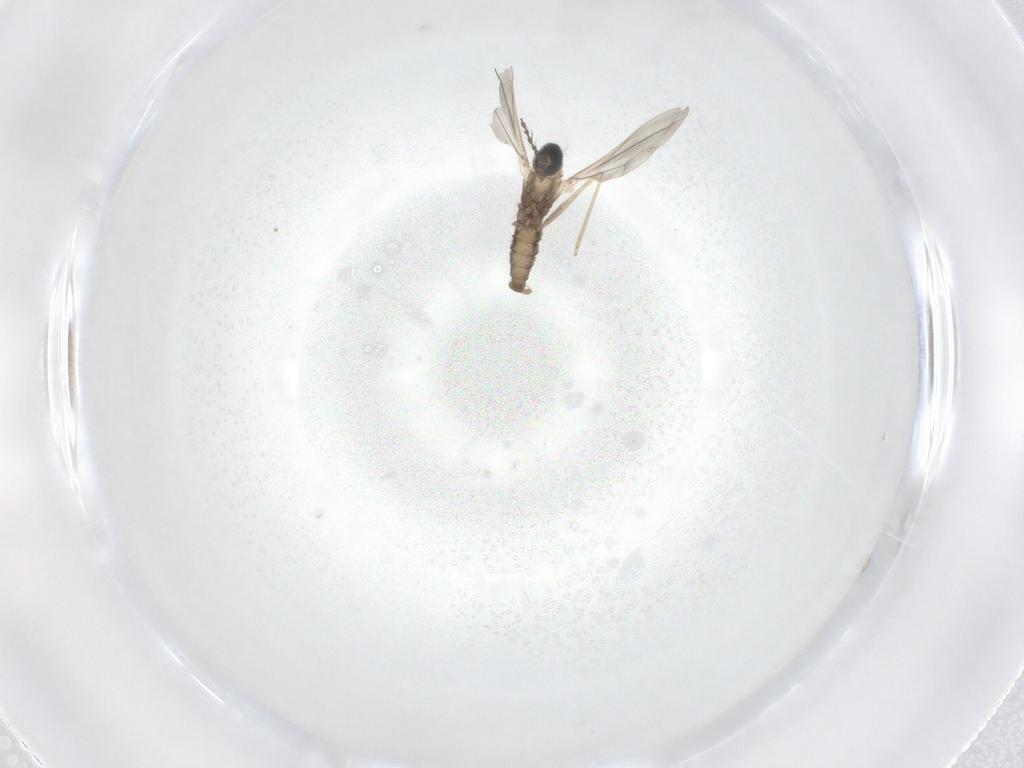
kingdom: Animalia
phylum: Arthropoda
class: Insecta
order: Diptera
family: Cecidomyiidae
